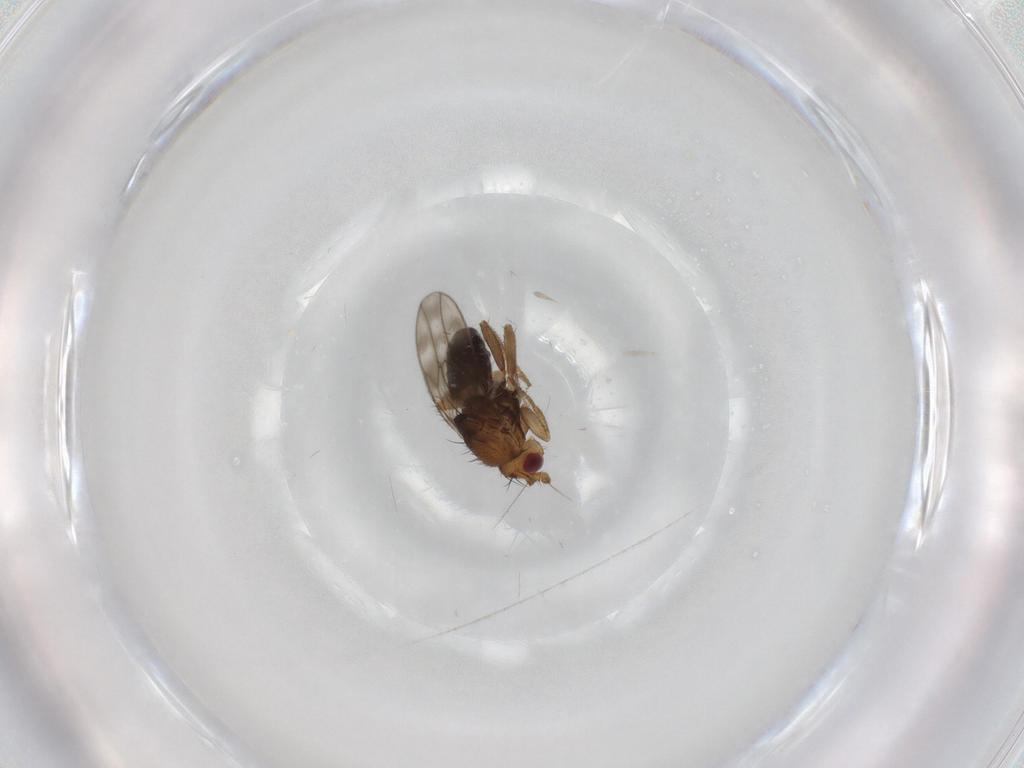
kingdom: Animalia
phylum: Arthropoda
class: Insecta
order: Diptera
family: Sphaeroceridae
